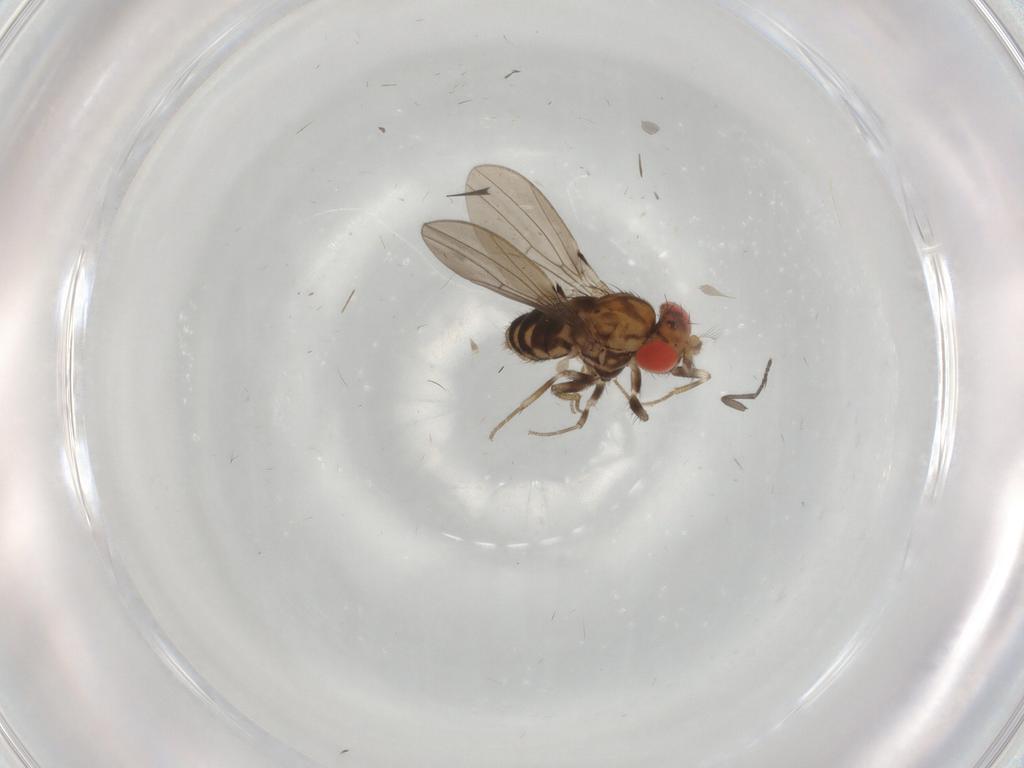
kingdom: Animalia
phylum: Arthropoda
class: Insecta
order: Diptera
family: Drosophilidae
